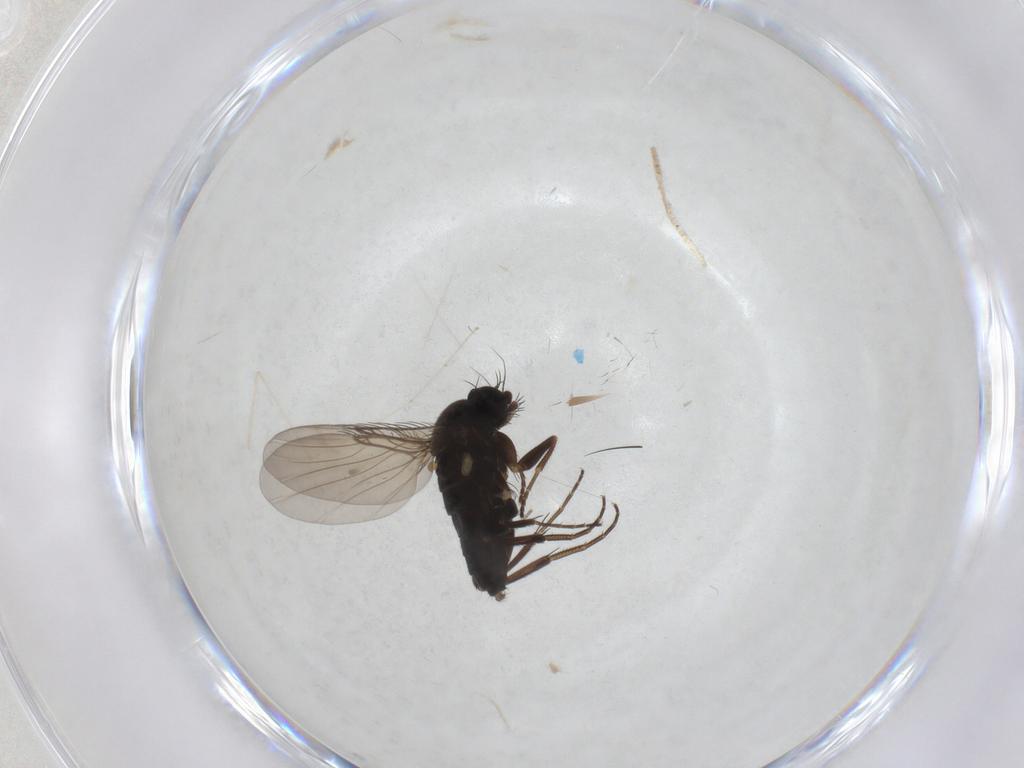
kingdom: Animalia
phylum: Arthropoda
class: Insecta
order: Diptera
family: Phoridae
